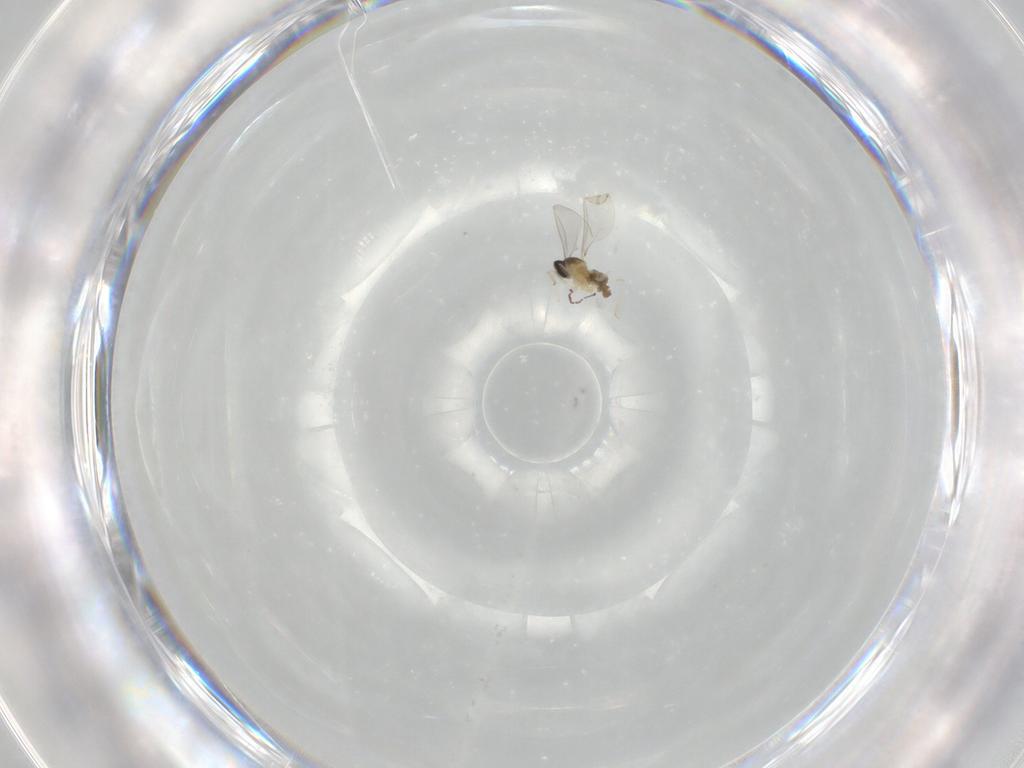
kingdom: Animalia
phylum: Arthropoda
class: Insecta
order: Diptera
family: Cecidomyiidae
